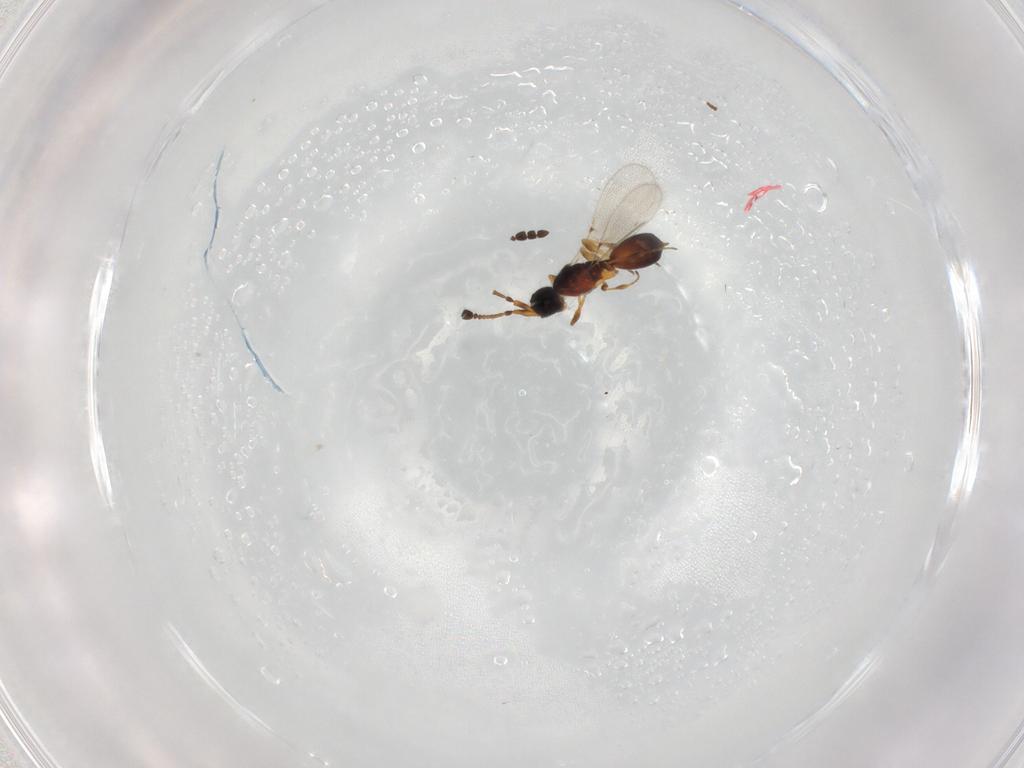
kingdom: Animalia
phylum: Arthropoda
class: Insecta
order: Hymenoptera
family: Diapriidae
